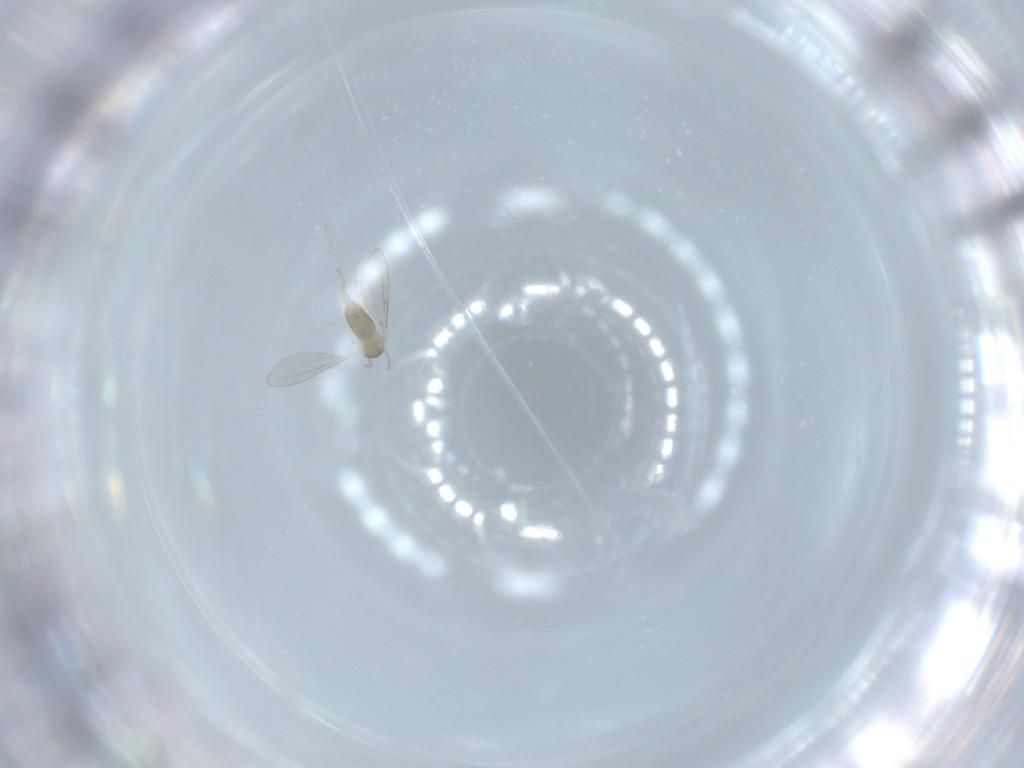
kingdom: Animalia
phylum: Arthropoda
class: Insecta
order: Diptera
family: Cecidomyiidae
